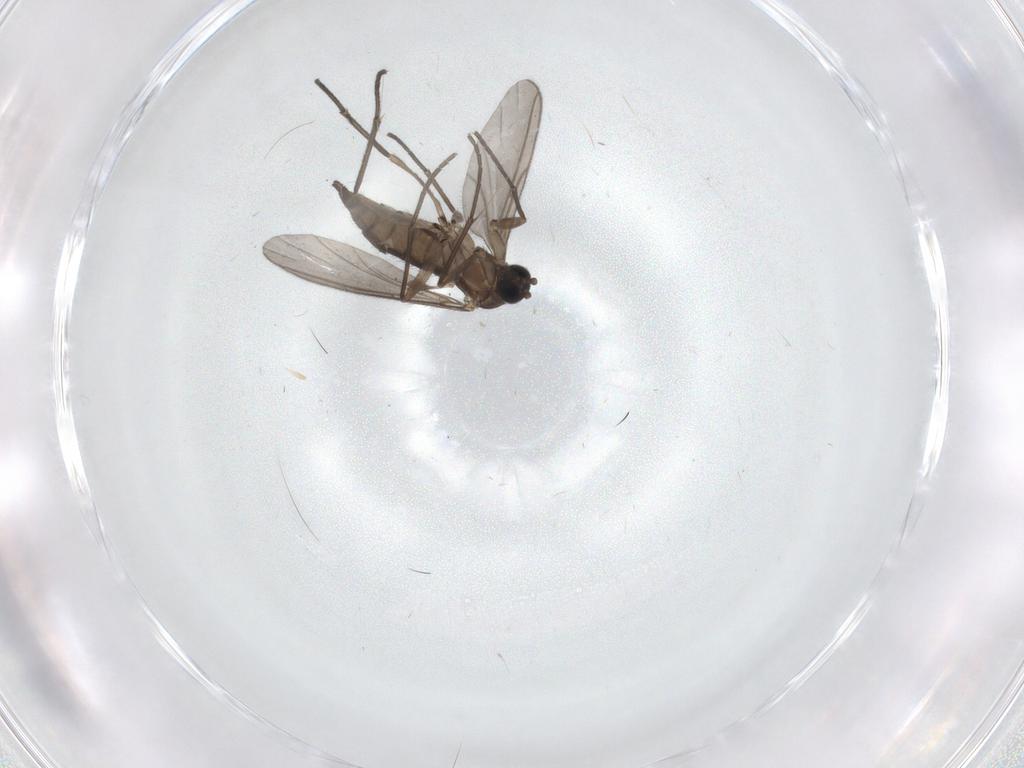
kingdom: Animalia
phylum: Arthropoda
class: Insecta
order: Diptera
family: Sciaridae
